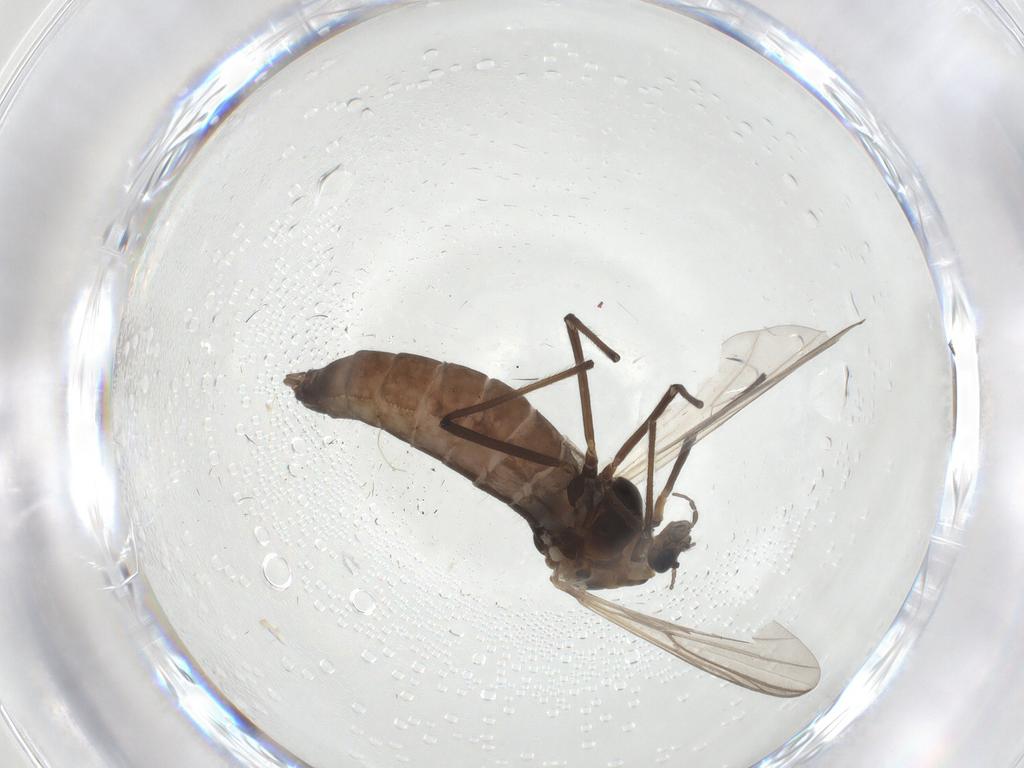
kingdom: Animalia
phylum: Arthropoda
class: Insecta
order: Diptera
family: Chironomidae
